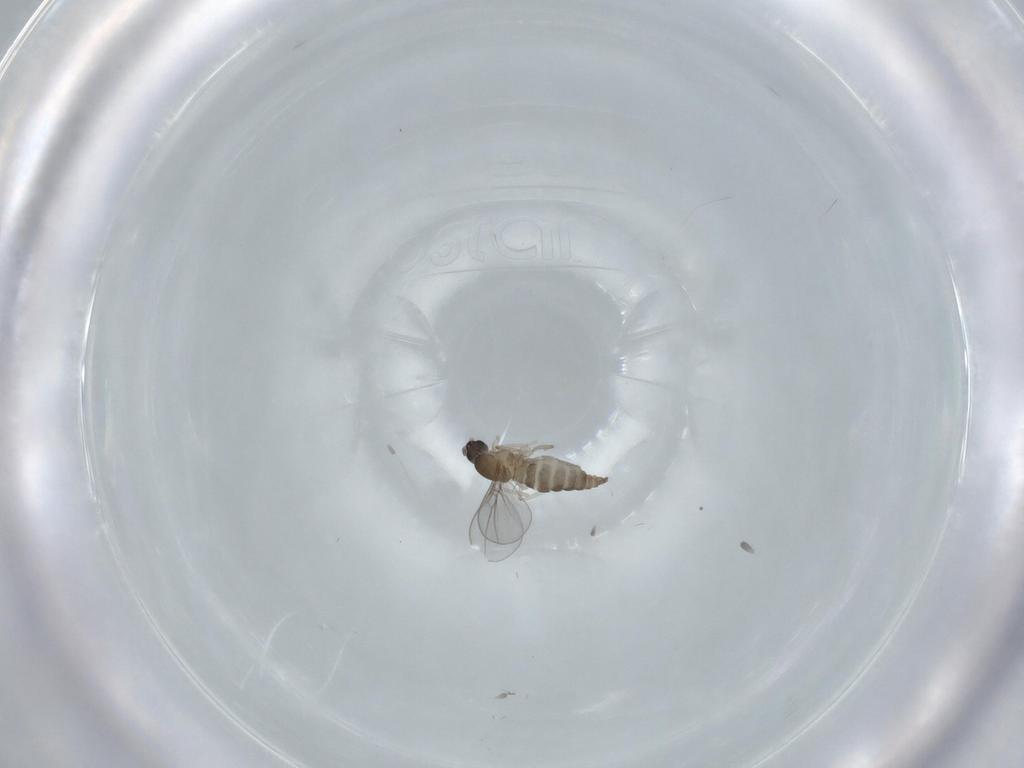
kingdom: Animalia
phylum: Arthropoda
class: Insecta
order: Diptera
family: Cecidomyiidae
